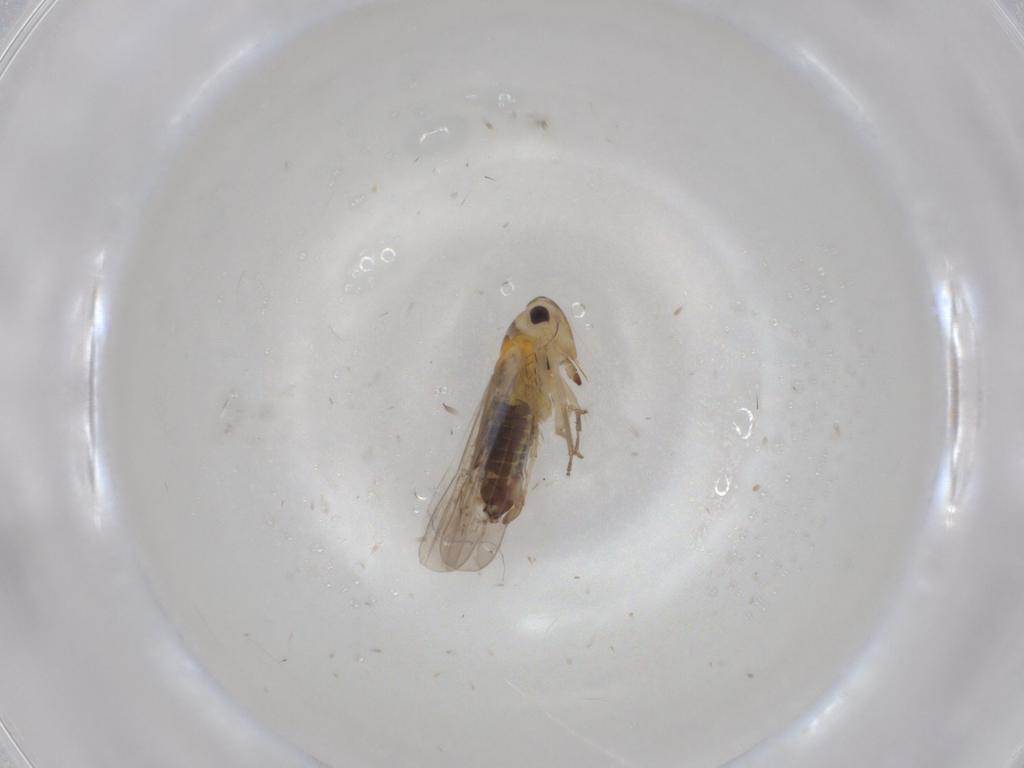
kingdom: Animalia
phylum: Arthropoda
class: Insecta
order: Hemiptera
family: Cicadellidae
